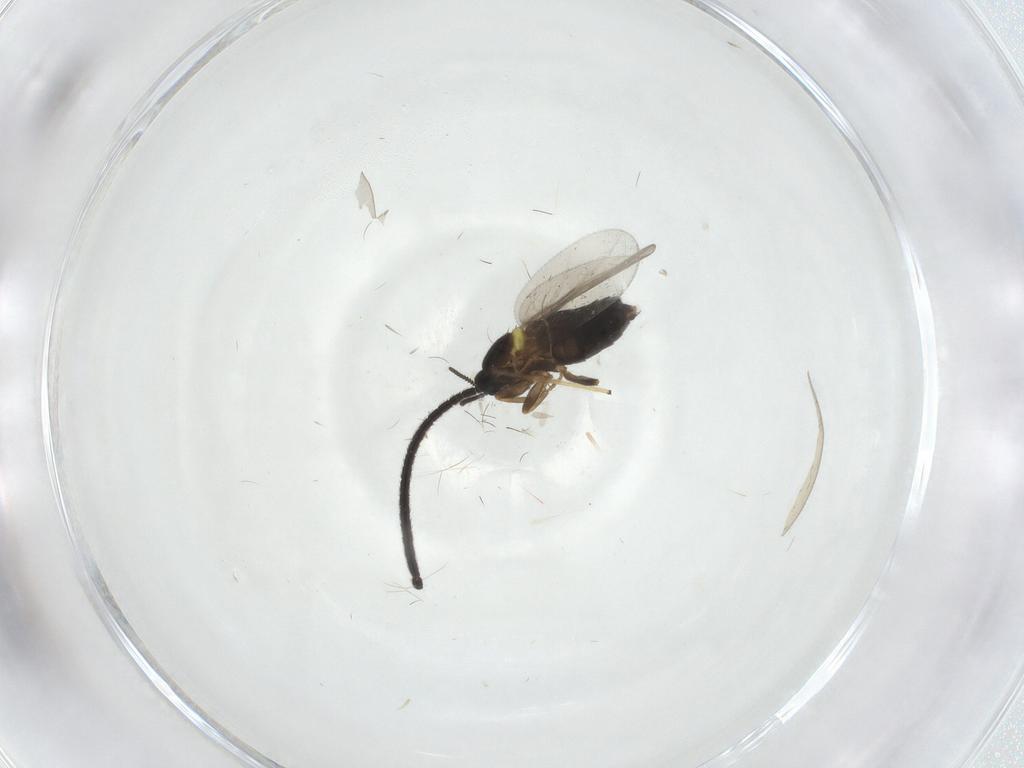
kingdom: Animalia
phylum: Arthropoda
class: Insecta
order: Diptera
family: Scatopsidae
